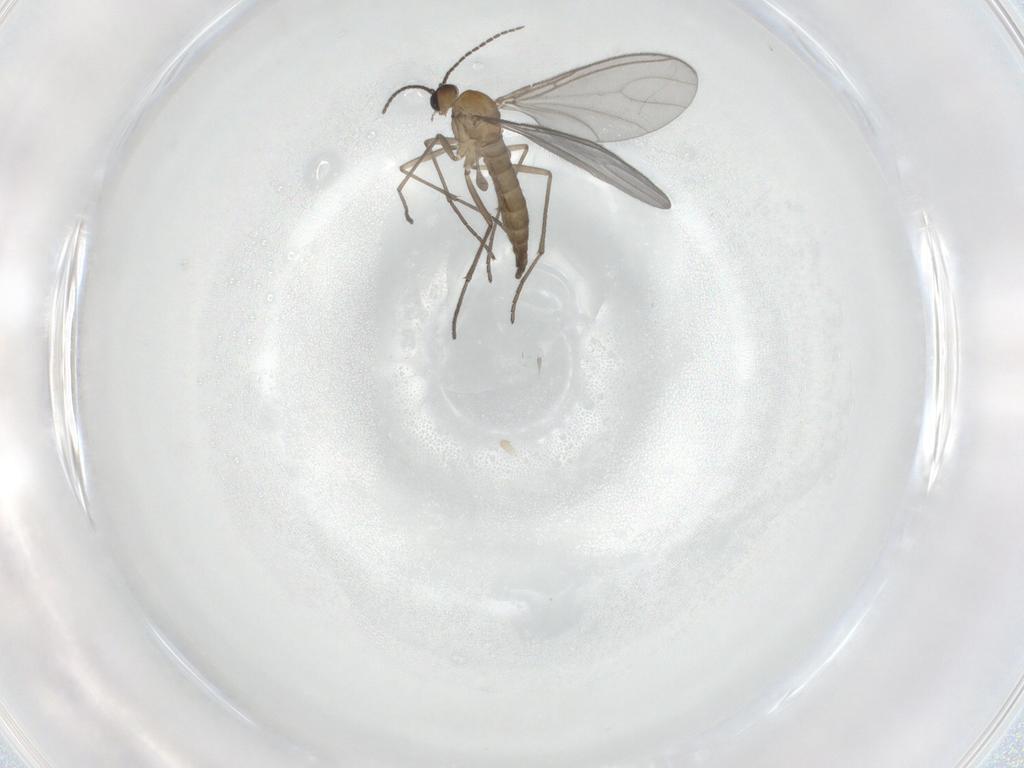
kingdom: Animalia
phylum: Arthropoda
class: Insecta
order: Diptera
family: Sciaridae
